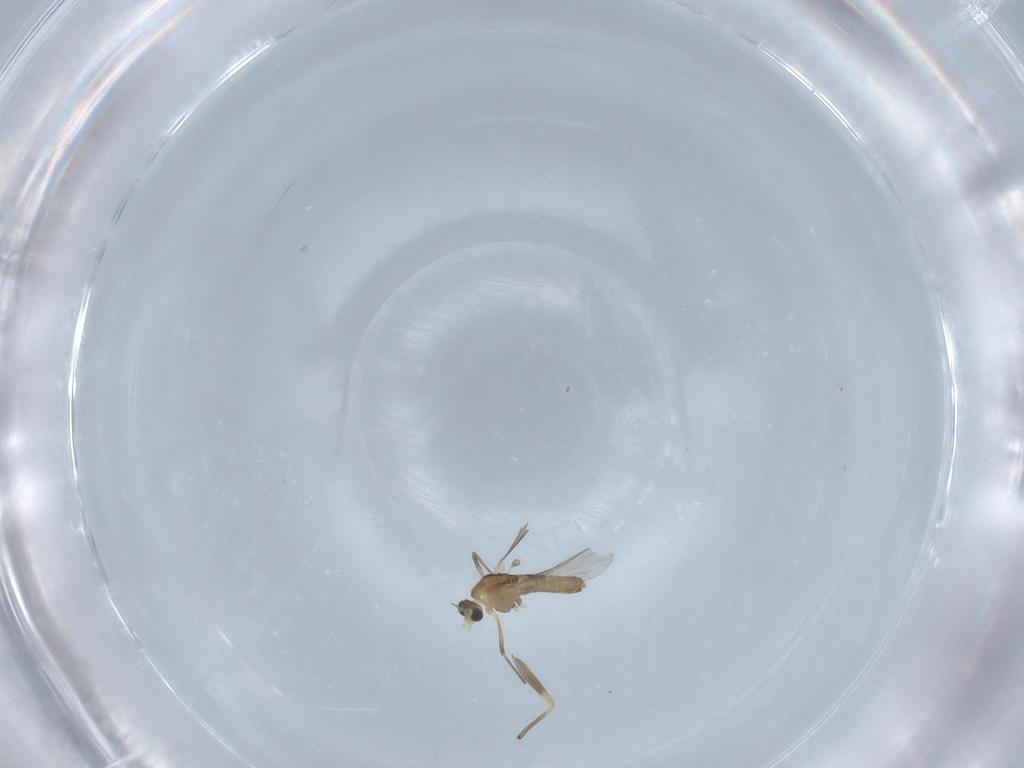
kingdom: Animalia
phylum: Arthropoda
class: Insecta
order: Diptera
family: Chironomidae
